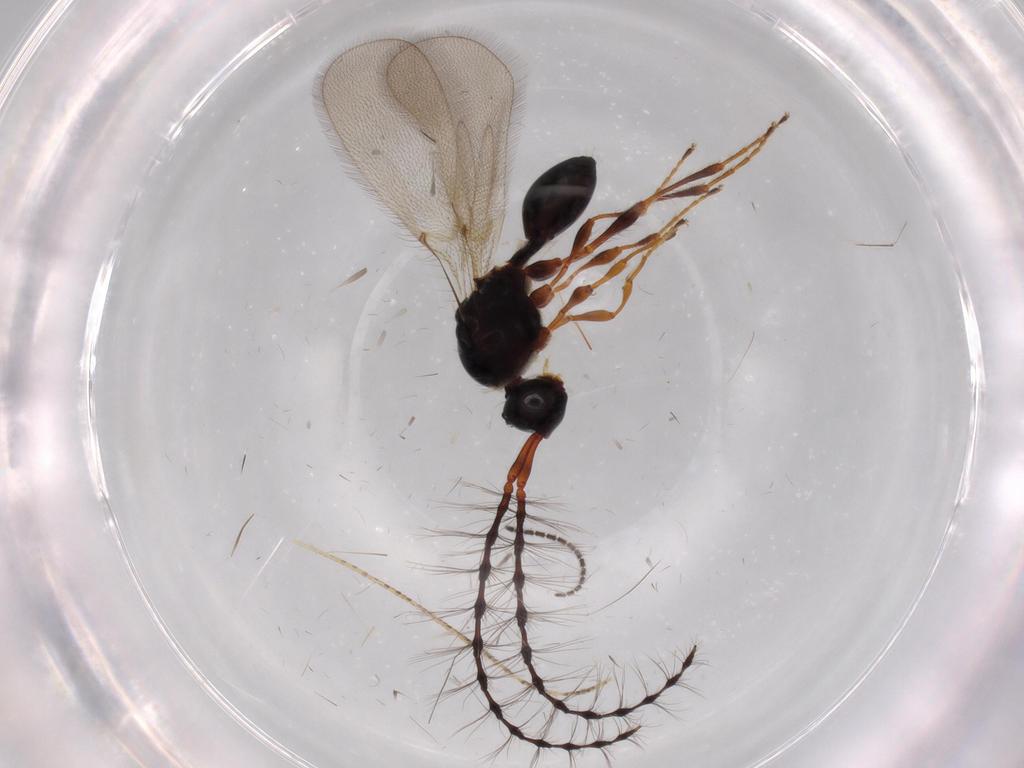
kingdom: Animalia
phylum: Arthropoda
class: Insecta
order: Hymenoptera
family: Diapriidae
